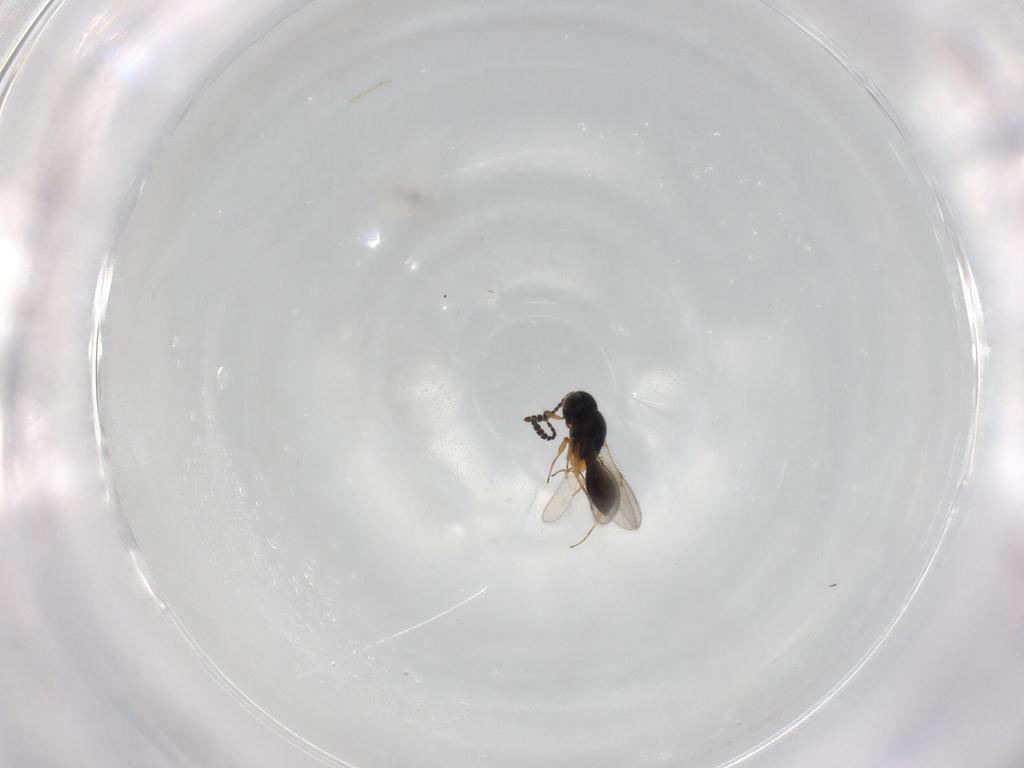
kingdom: Animalia
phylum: Arthropoda
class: Insecta
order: Hymenoptera
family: Scelionidae
